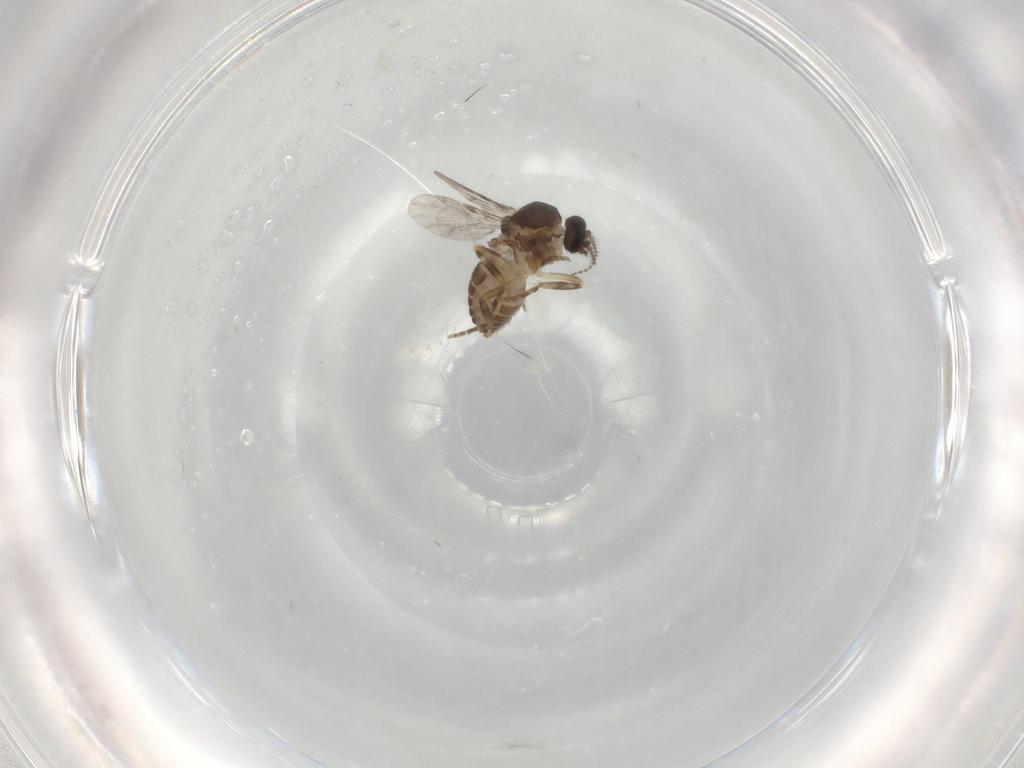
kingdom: Animalia
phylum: Arthropoda
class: Insecta
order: Diptera
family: Ceratopogonidae
